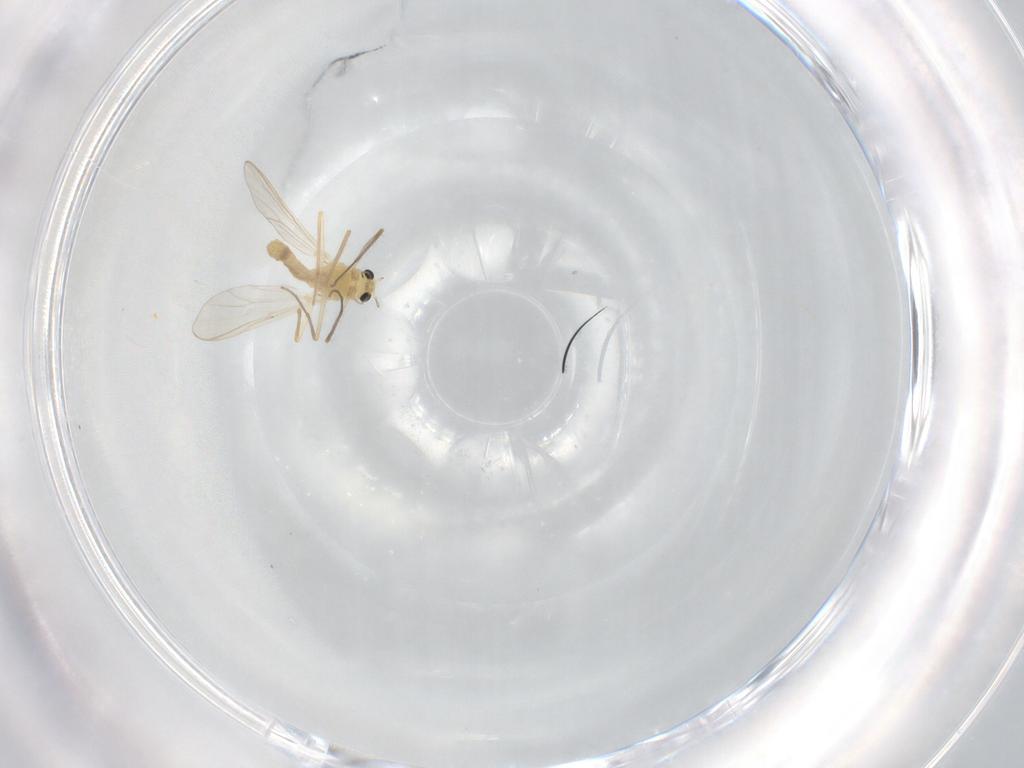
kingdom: Animalia
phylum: Arthropoda
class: Insecta
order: Diptera
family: Chironomidae
